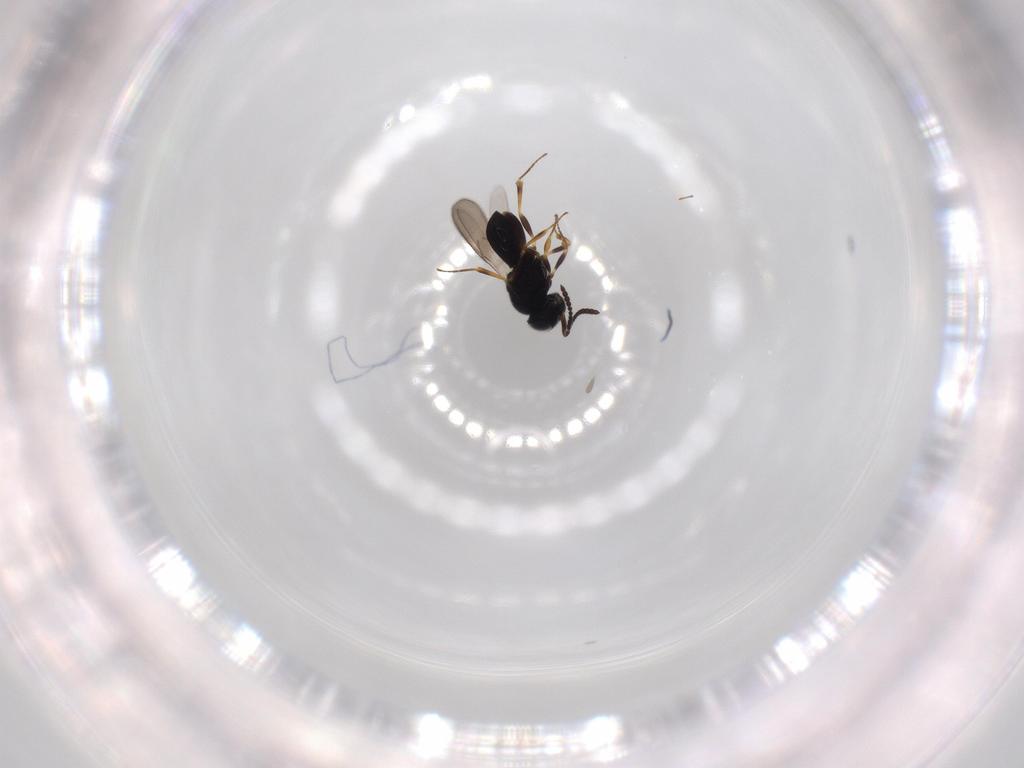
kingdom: Animalia
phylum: Arthropoda
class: Insecta
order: Hymenoptera
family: Scelionidae
